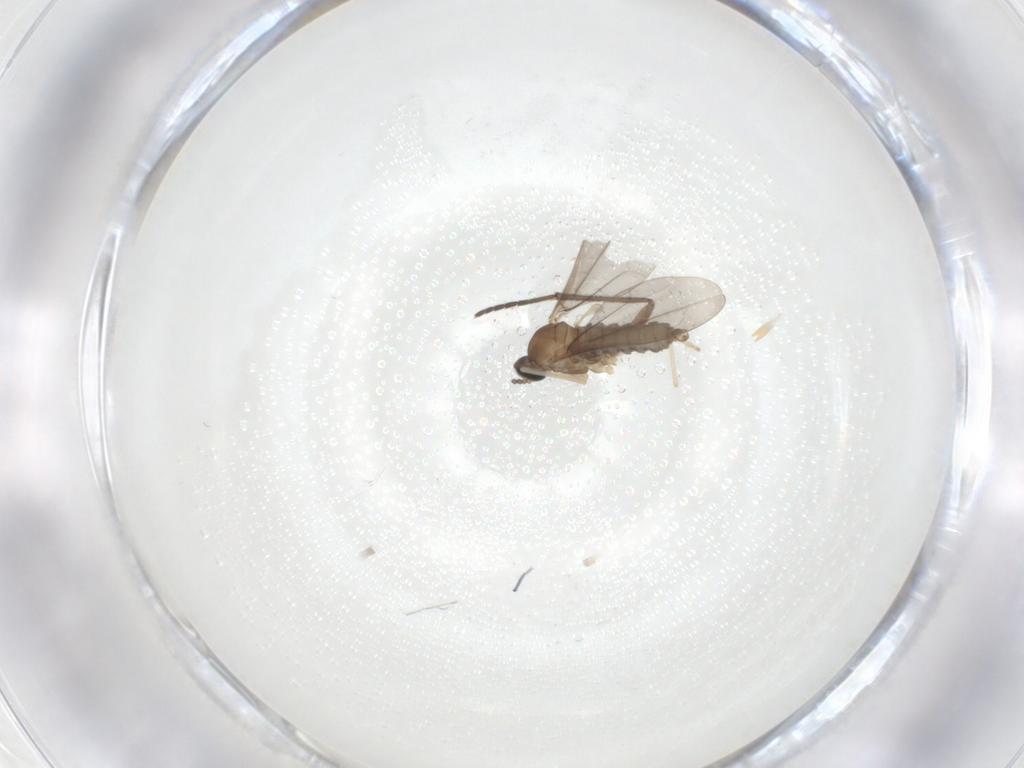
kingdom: Animalia
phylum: Arthropoda
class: Insecta
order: Diptera
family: Sciaridae
